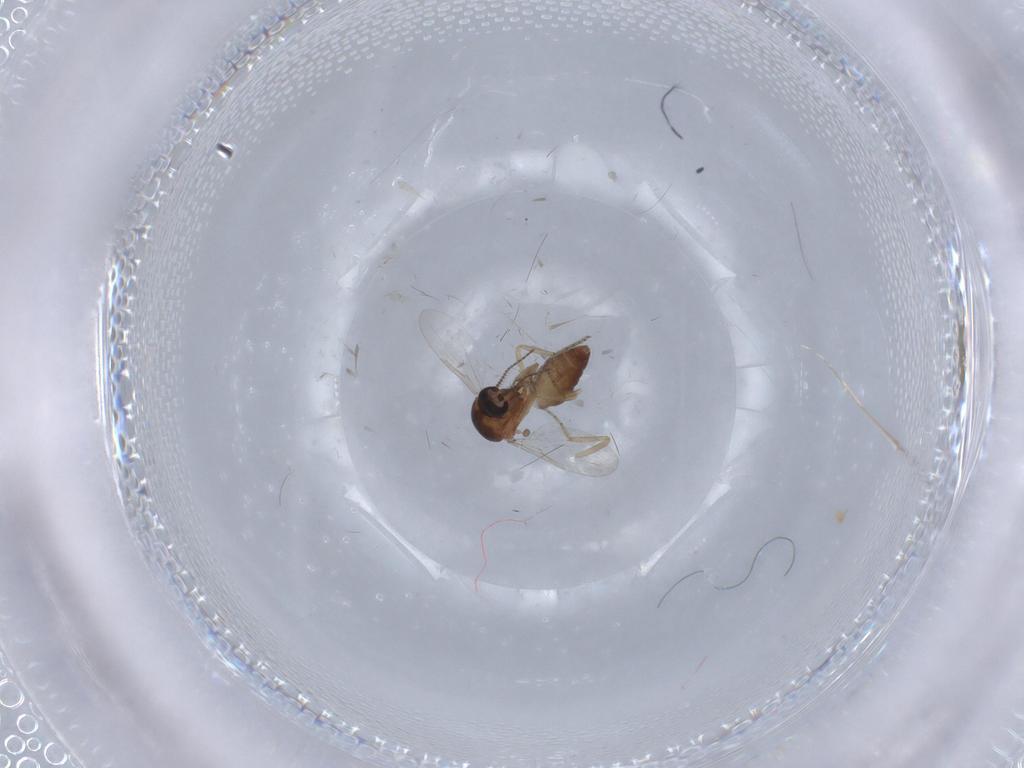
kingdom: Animalia
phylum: Arthropoda
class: Insecta
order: Diptera
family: Ceratopogonidae
